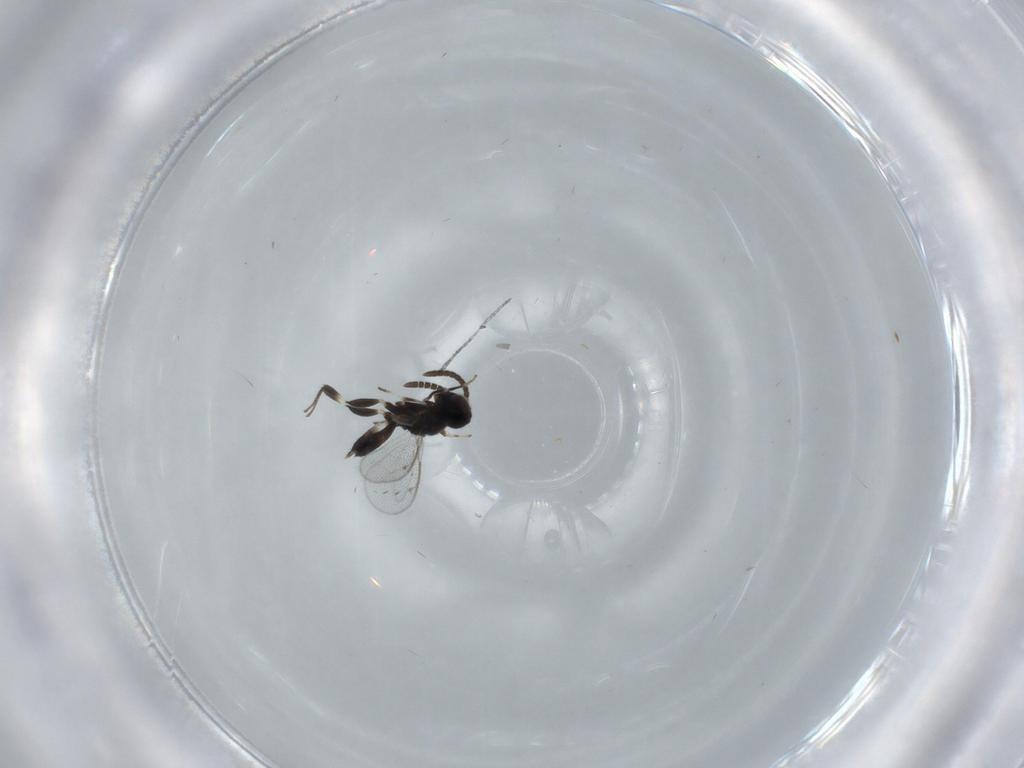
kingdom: Animalia
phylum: Arthropoda
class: Insecta
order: Hymenoptera
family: Eupelmidae
